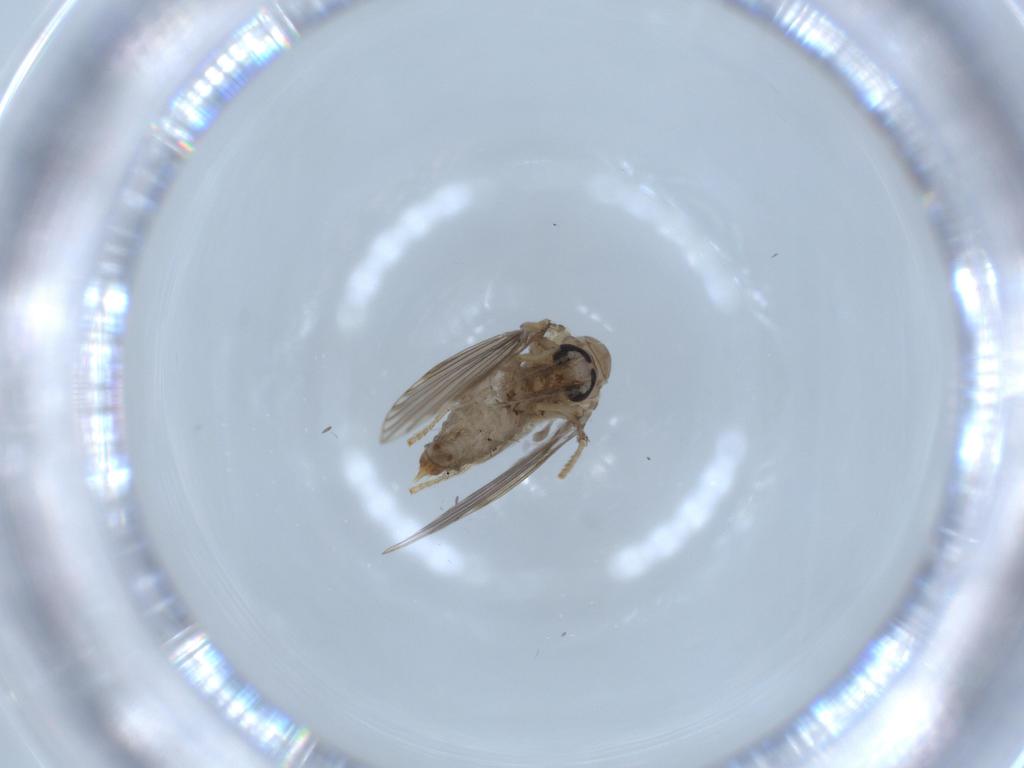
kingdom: Animalia
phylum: Arthropoda
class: Insecta
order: Diptera
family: Psychodidae
